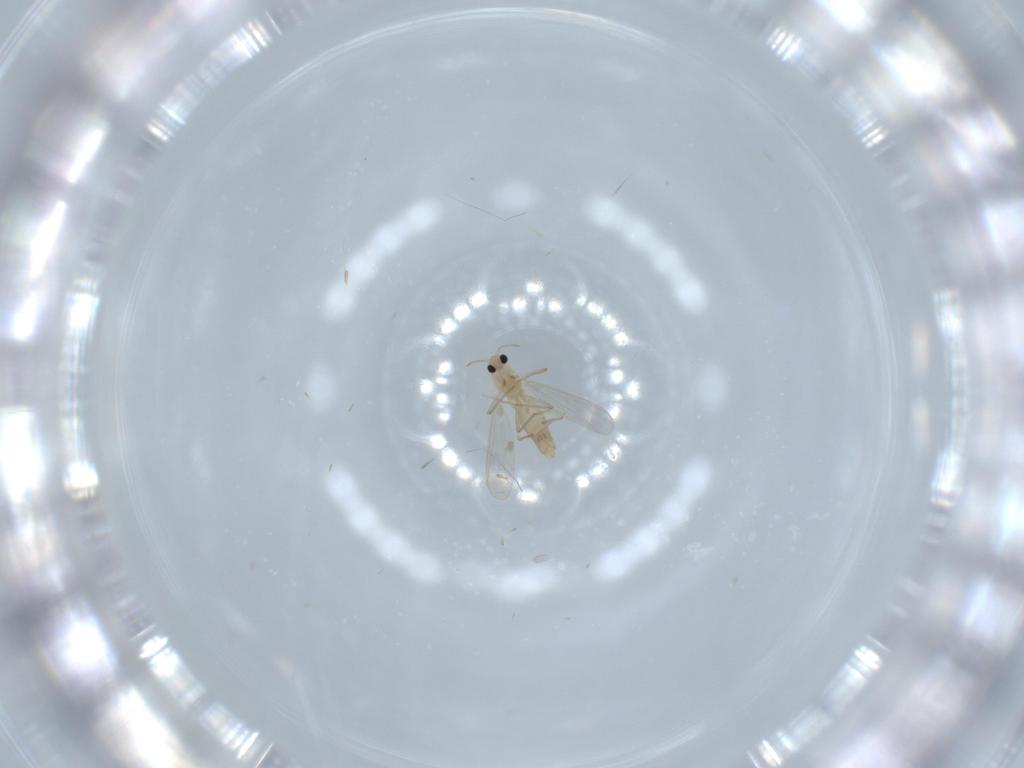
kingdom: Animalia
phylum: Arthropoda
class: Insecta
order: Diptera
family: Chironomidae
